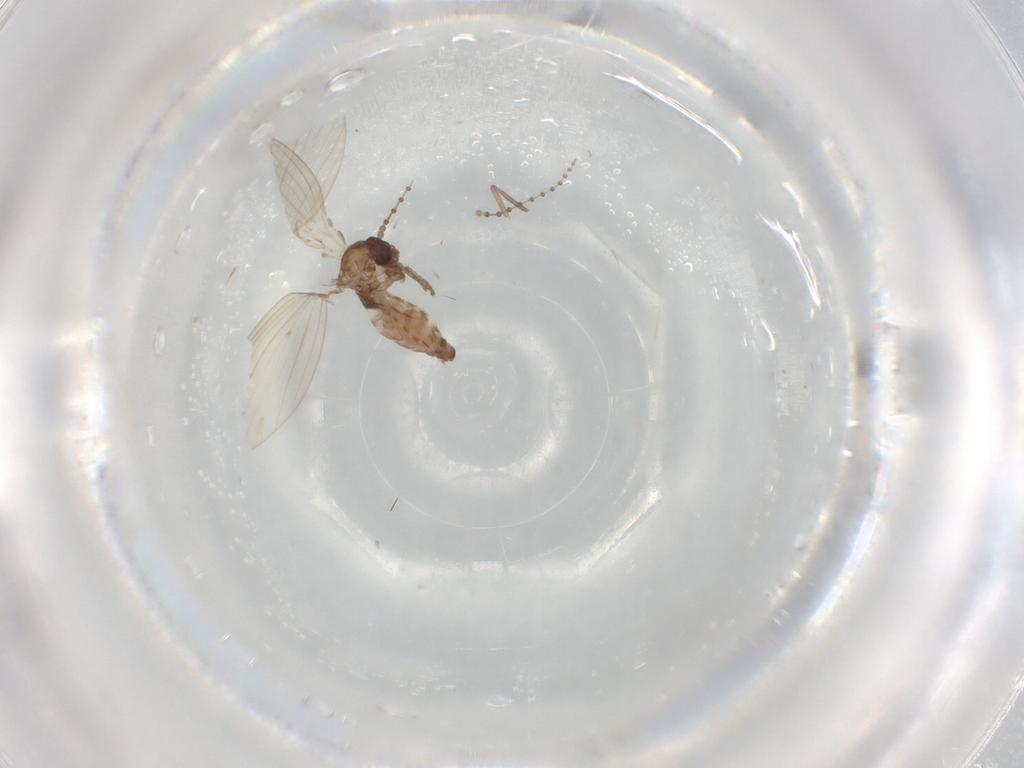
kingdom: Animalia
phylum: Arthropoda
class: Insecta
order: Diptera
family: Psychodidae
